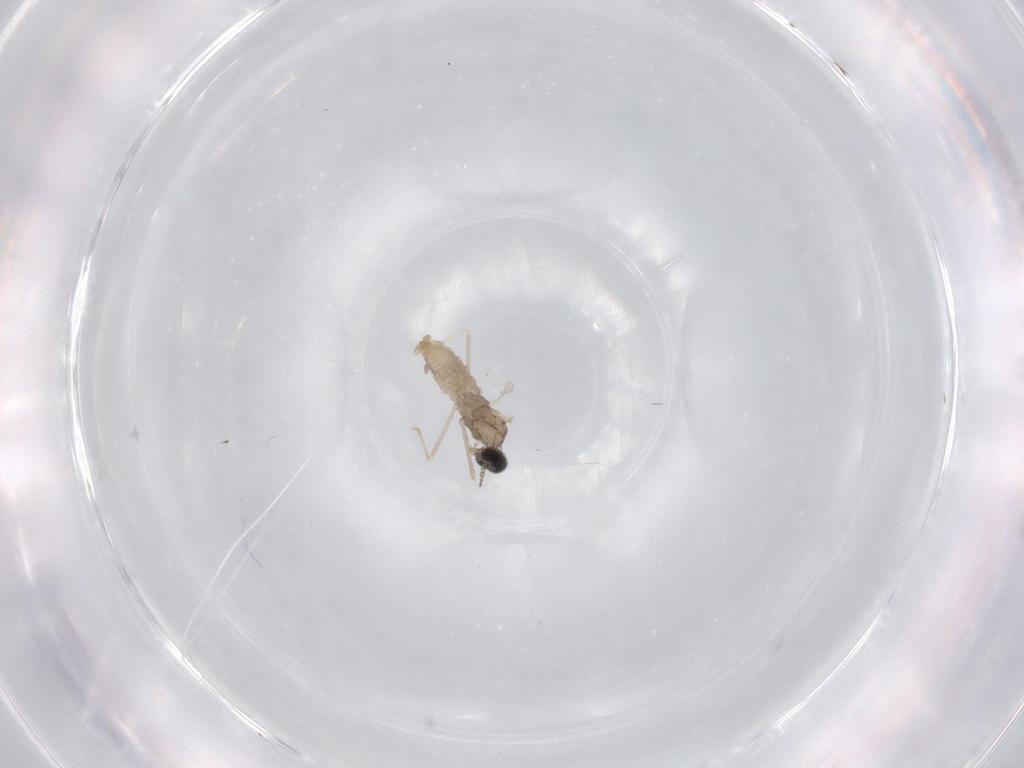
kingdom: Animalia
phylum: Arthropoda
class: Insecta
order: Diptera
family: Cecidomyiidae
